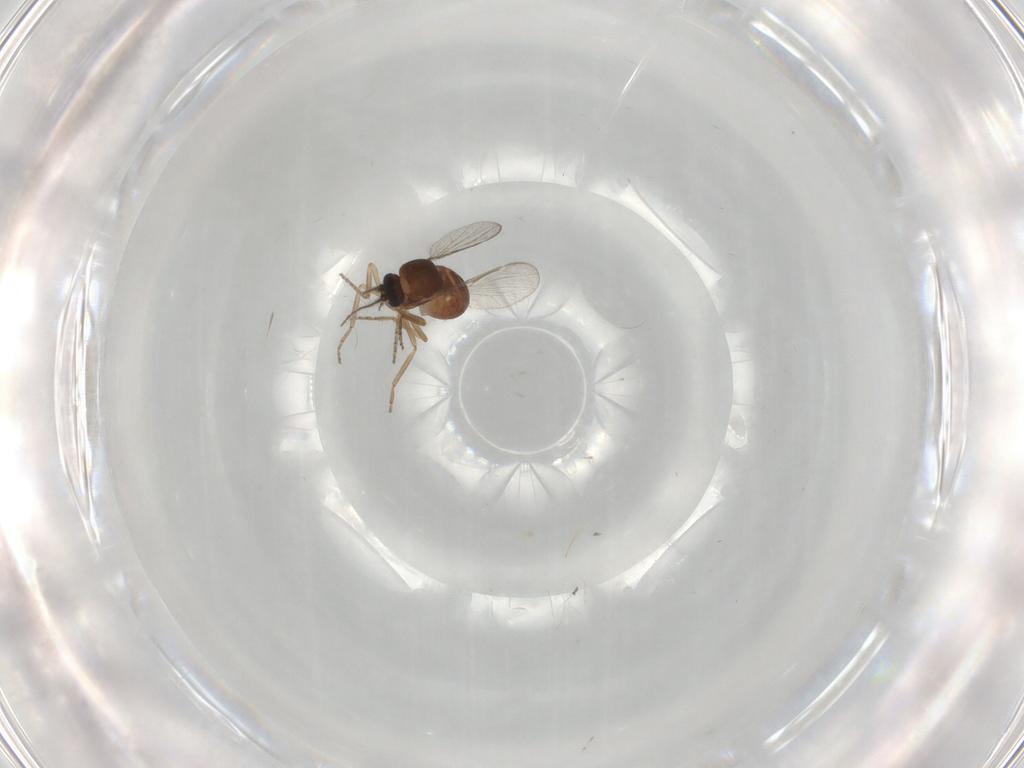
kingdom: Animalia
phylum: Arthropoda
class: Insecta
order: Diptera
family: Ceratopogonidae
